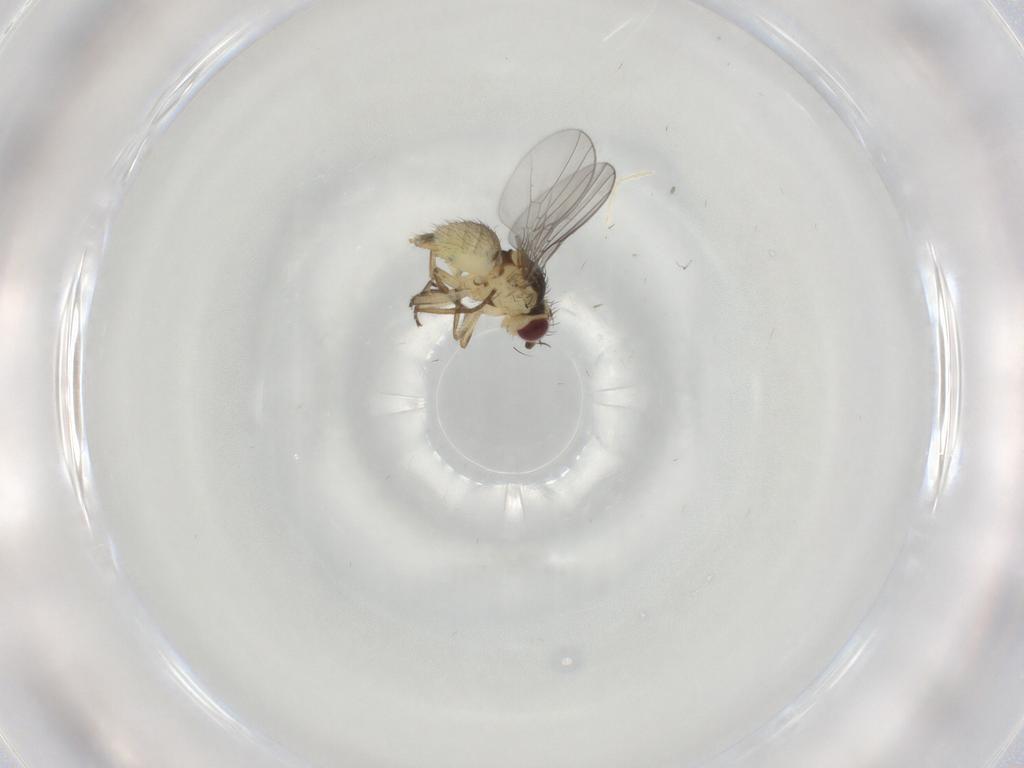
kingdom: Animalia
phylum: Arthropoda
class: Insecta
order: Diptera
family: Agromyzidae
